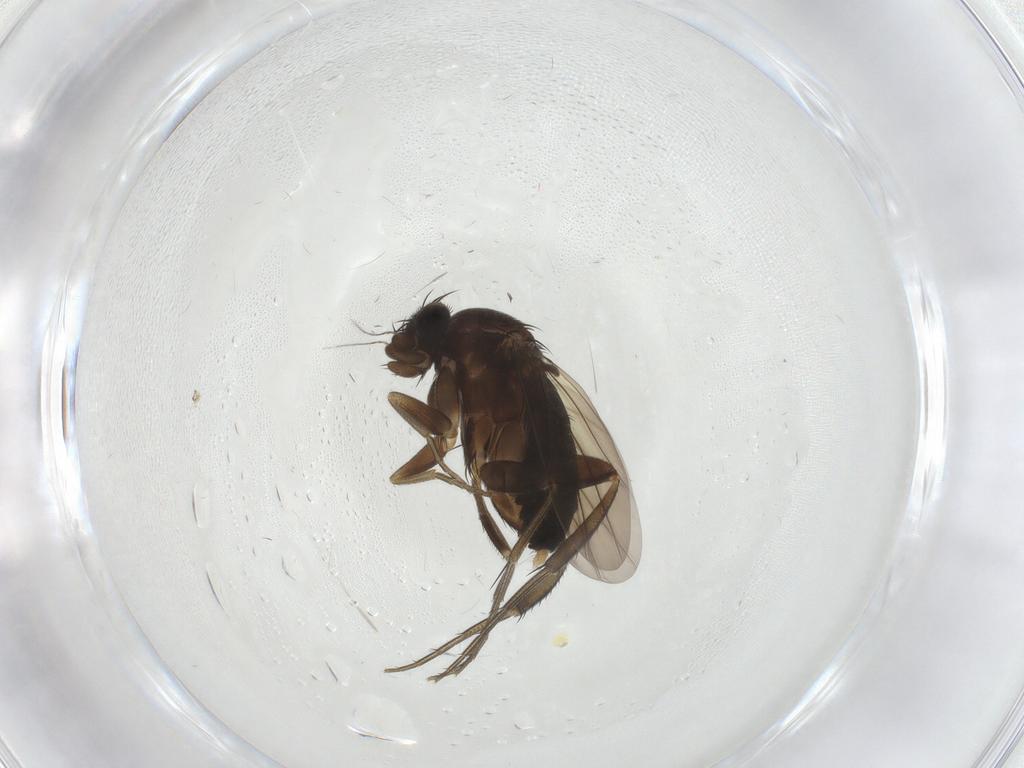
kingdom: Animalia
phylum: Arthropoda
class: Insecta
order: Diptera
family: Phoridae
